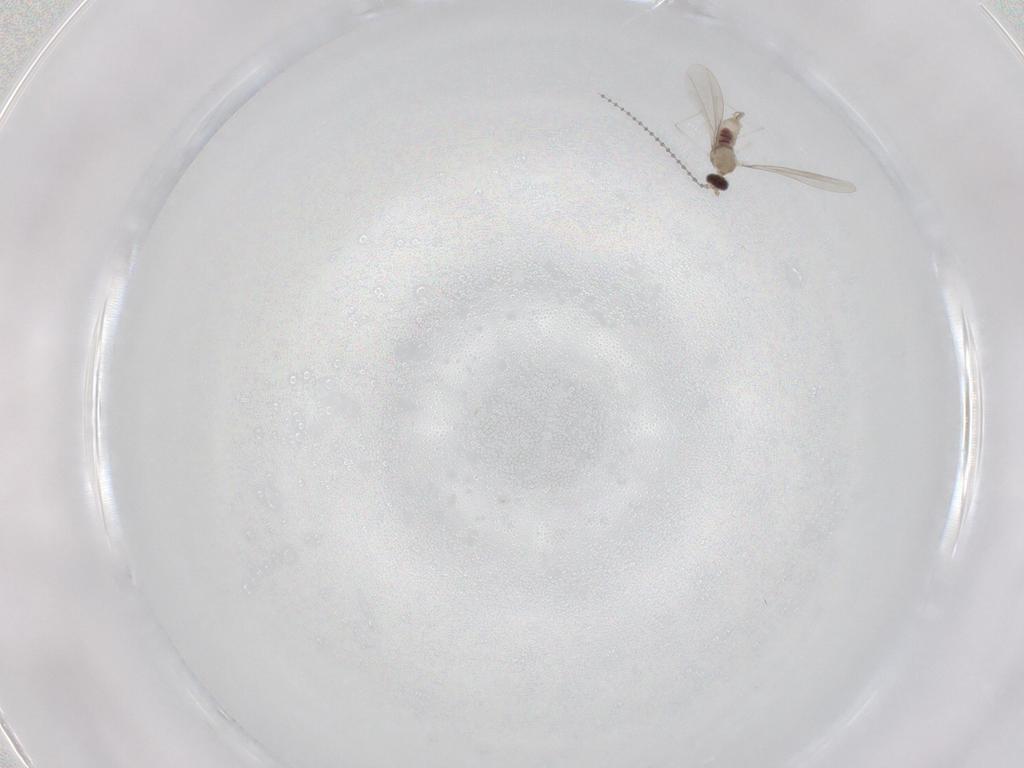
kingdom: Animalia
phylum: Arthropoda
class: Insecta
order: Diptera
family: Cecidomyiidae
